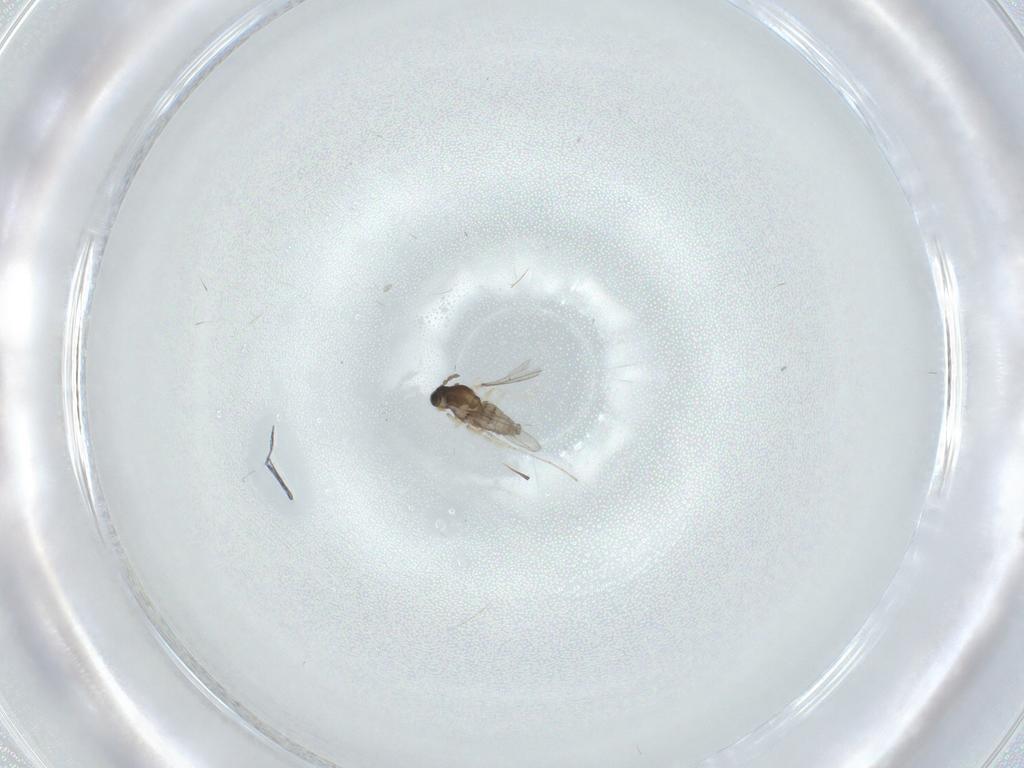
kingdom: Animalia
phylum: Arthropoda
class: Insecta
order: Diptera
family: Cecidomyiidae
